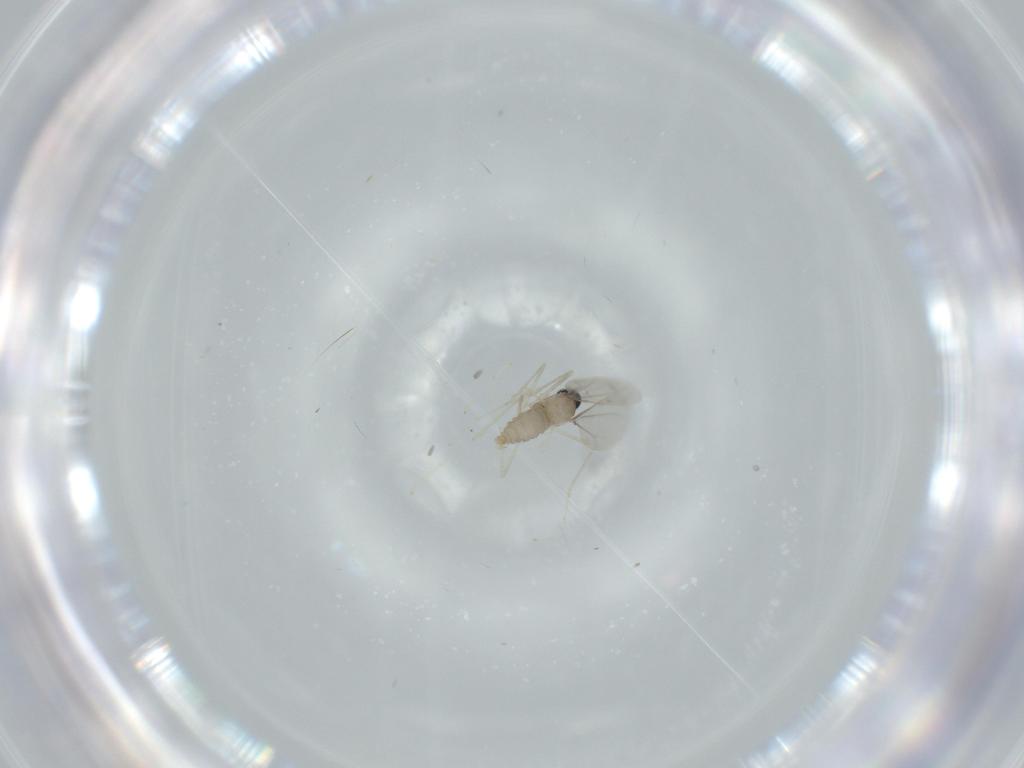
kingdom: Animalia
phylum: Arthropoda
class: Insecta
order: Diptera
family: Cecidomyiidae
